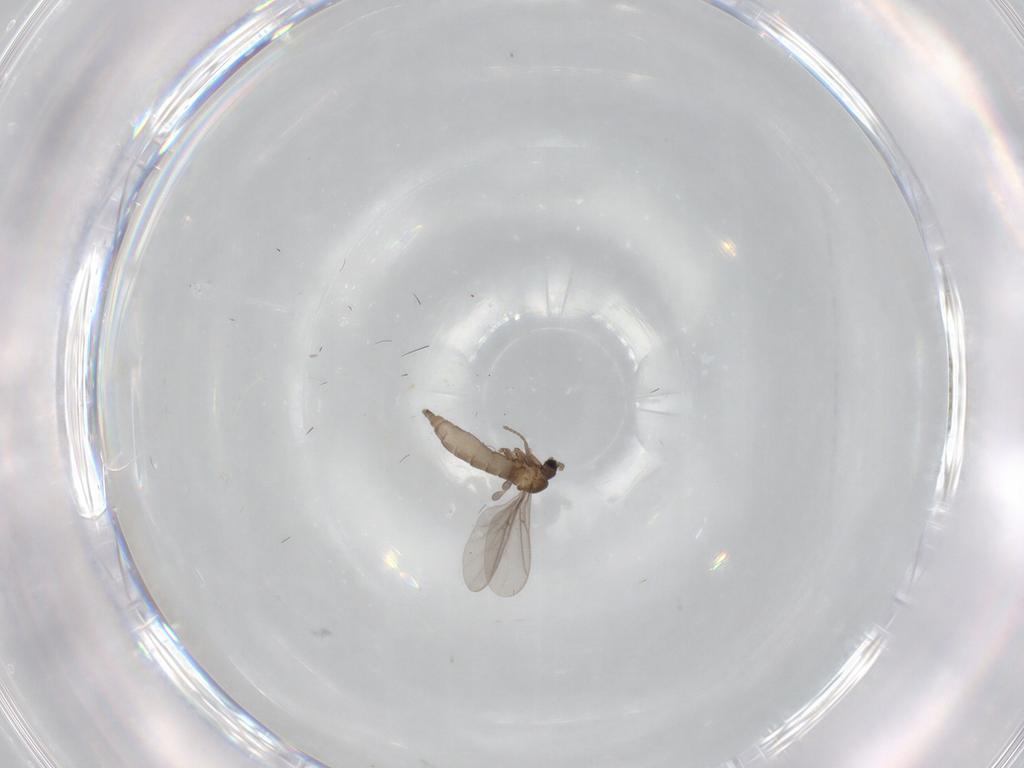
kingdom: Animalia
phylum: Arthropoda
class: Insecta
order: Diptera
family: Sciaridae
